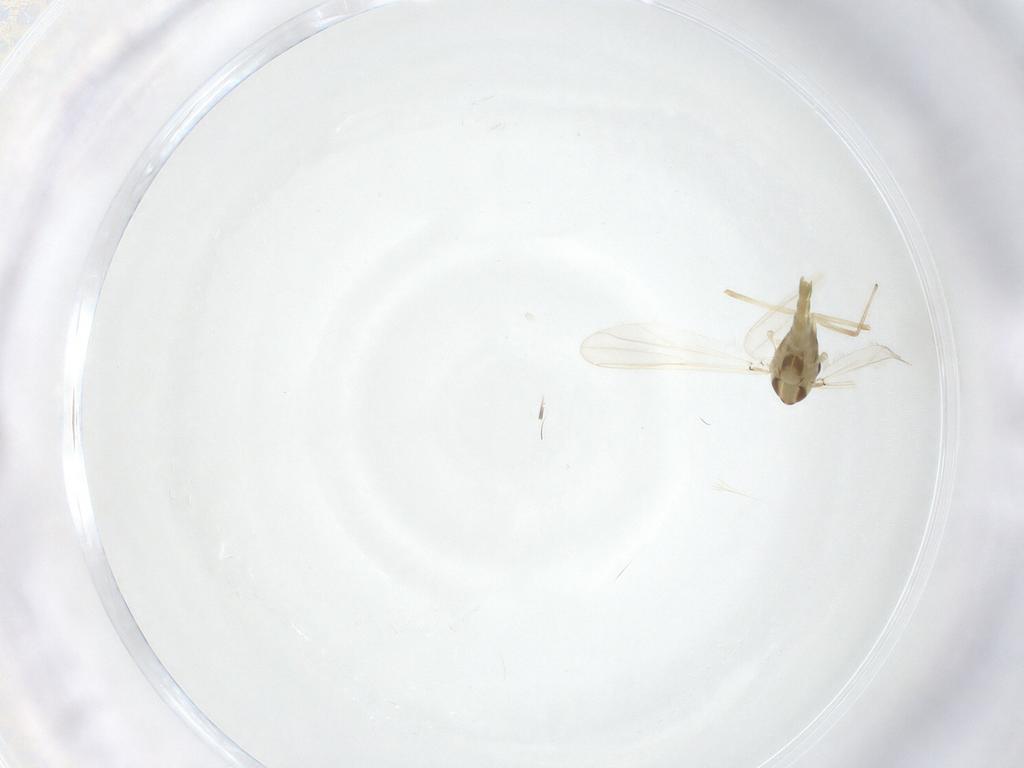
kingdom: Animalia
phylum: Arthropoda
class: Insecta
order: Diptera
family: Chironomidae
